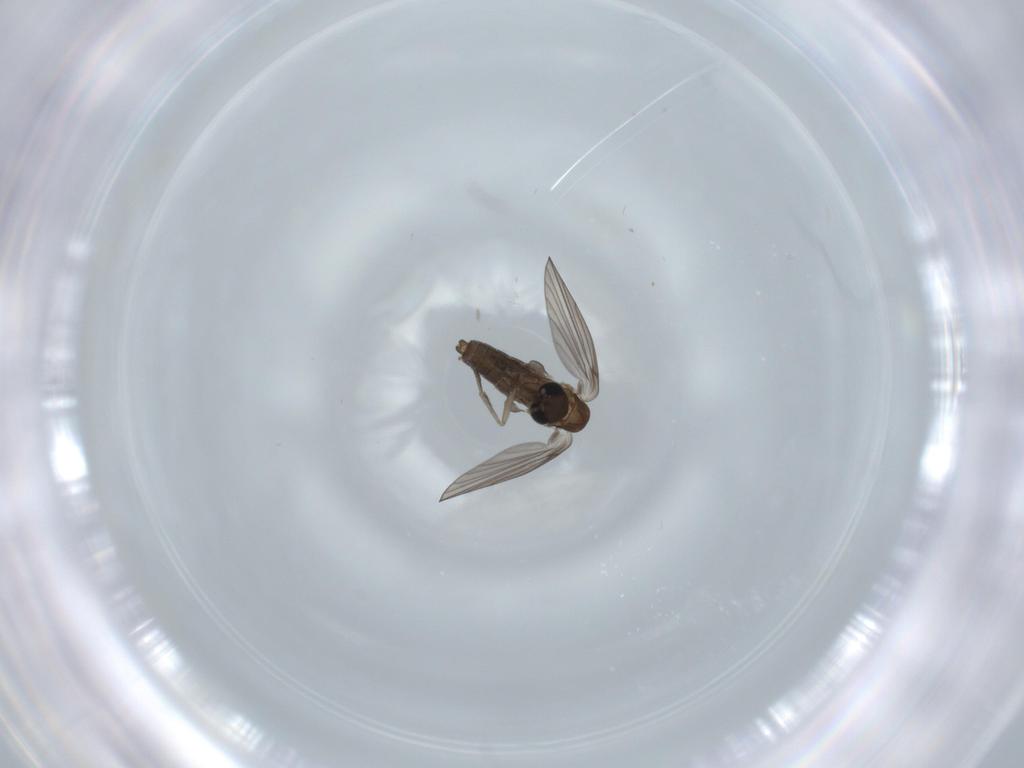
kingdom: Animalia
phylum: Arthropoda
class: Insecta
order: Diptera
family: Psychodidae
